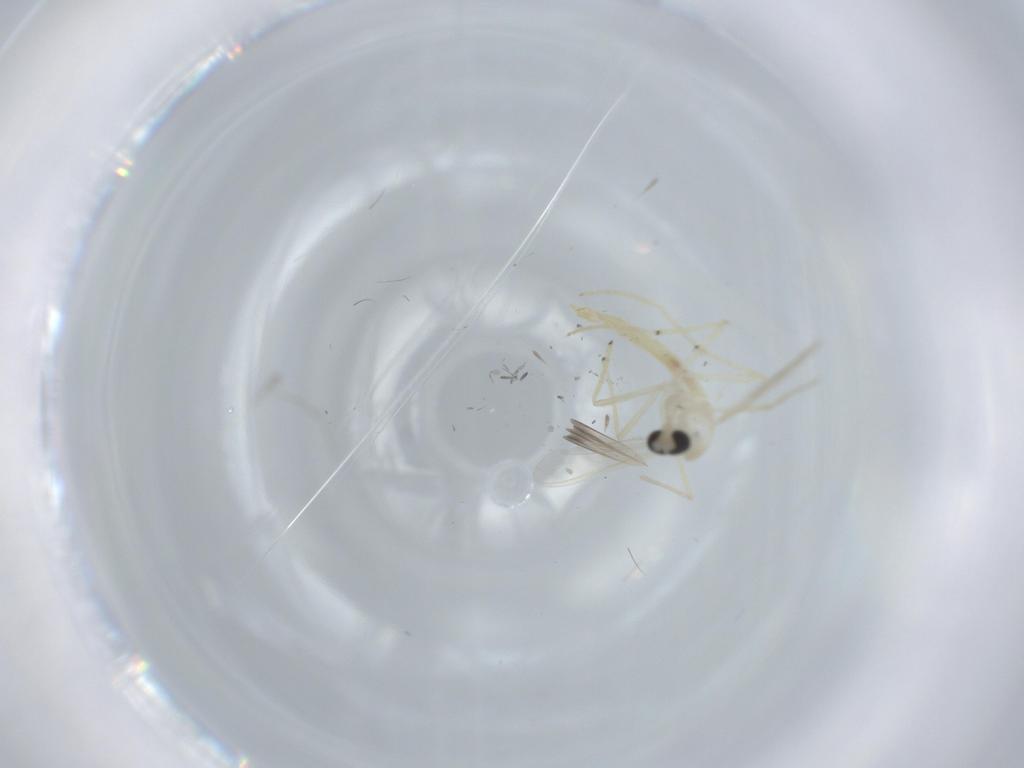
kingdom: Animalia
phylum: Arthropoda
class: Insecta
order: Diptera
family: Chironomidae
